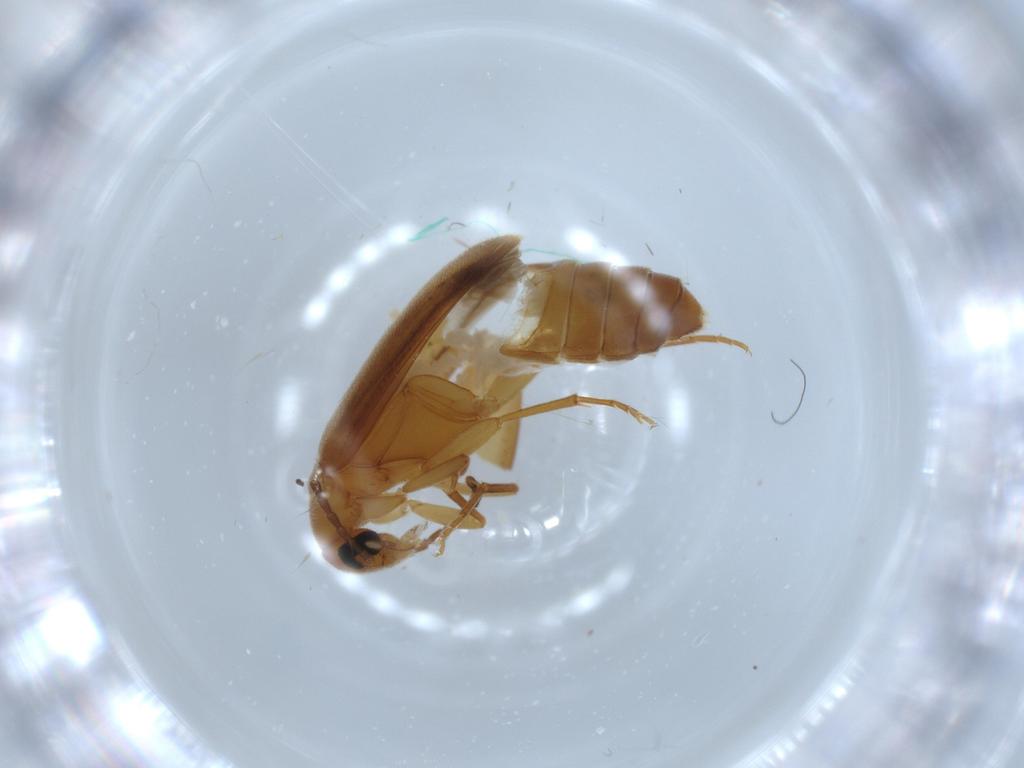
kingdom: Animalia
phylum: Arthropoda
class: Insecta
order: Coleoptera
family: Scraptiidae
